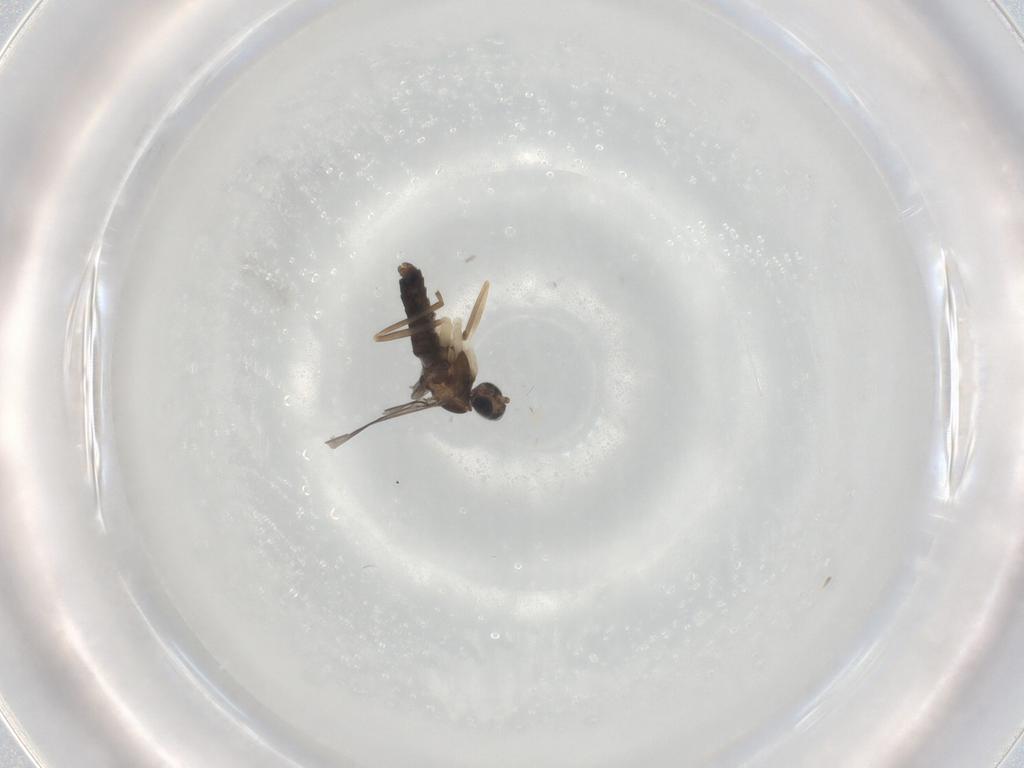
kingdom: Animalia
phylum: Arthropoda
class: Insecta
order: Diptera
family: Cecidomyiidae
